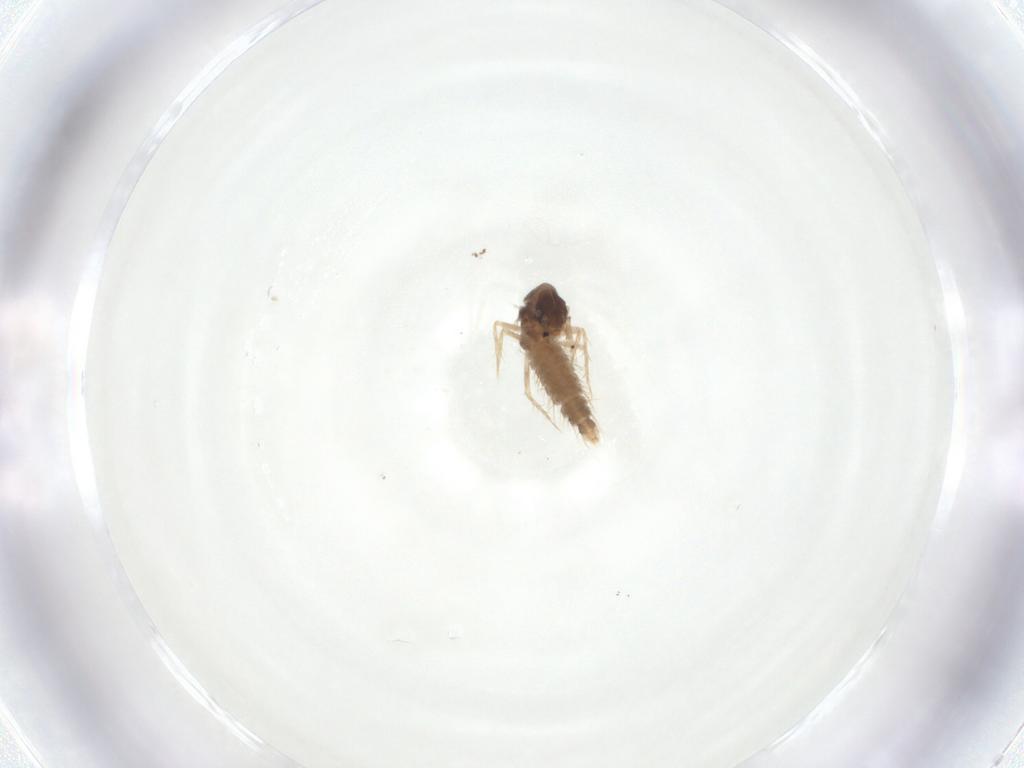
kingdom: Animalia
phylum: Arthropoda
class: Insecta
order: Coleoptera
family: Staphylinidae
